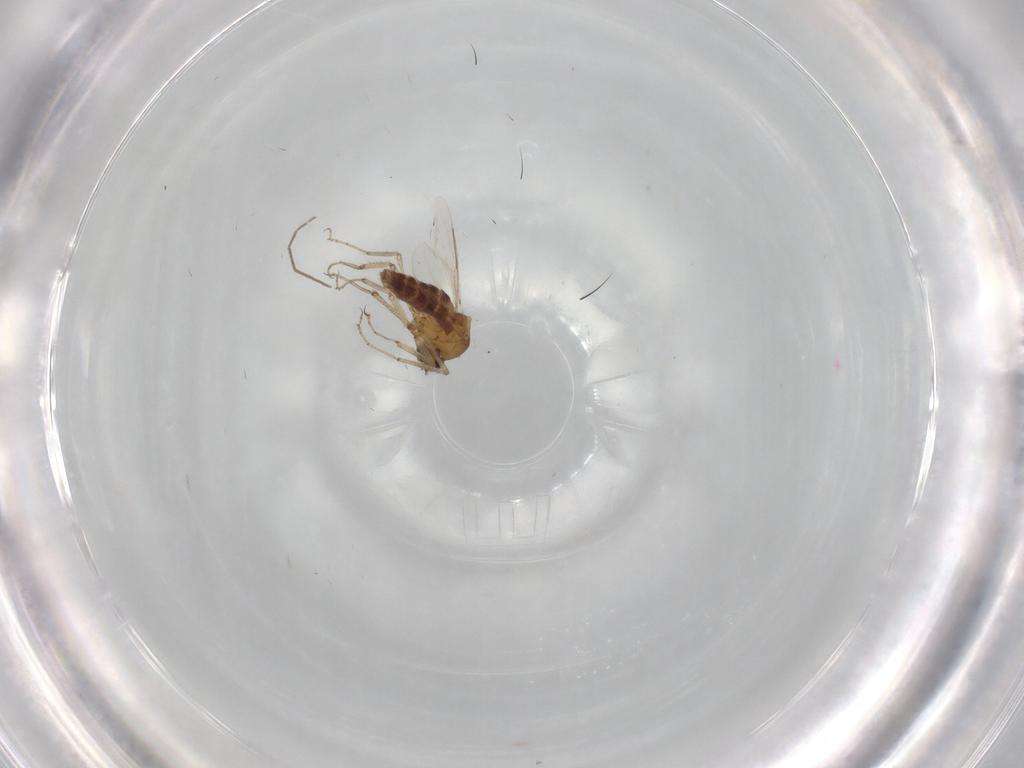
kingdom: Animalia
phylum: Arthropoda
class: Insecta
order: Diptera
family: Ceratopogonidae
